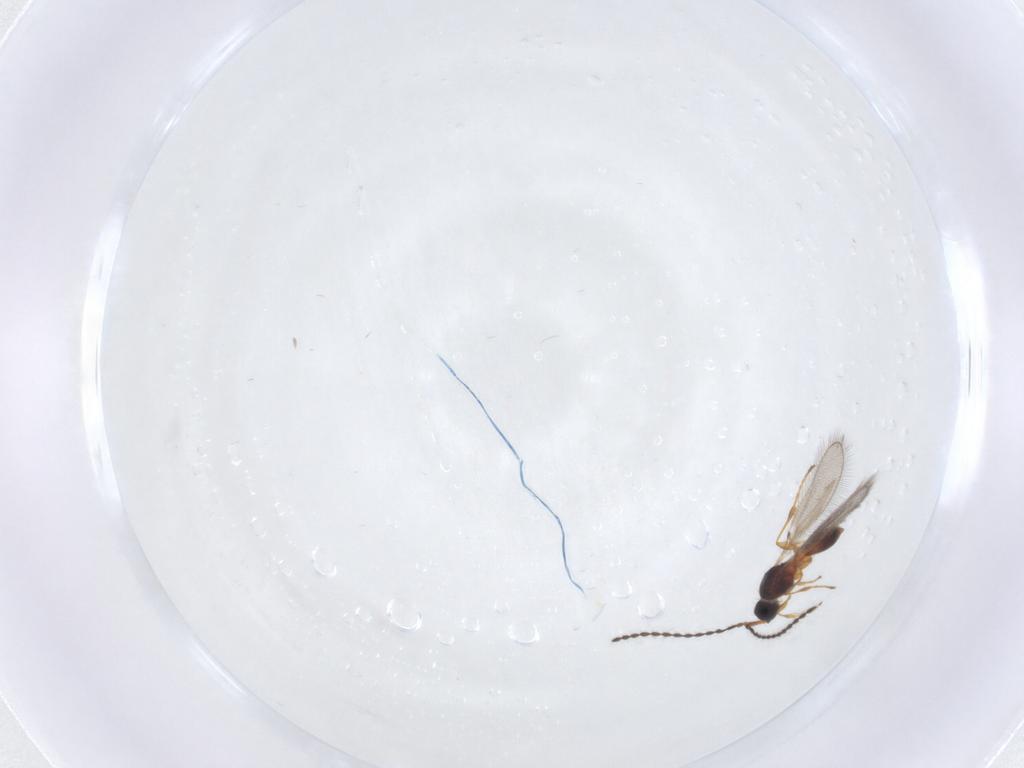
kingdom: Animalia
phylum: Arthropoda
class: Insecta
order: Hymenoptera
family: Diapriidae
